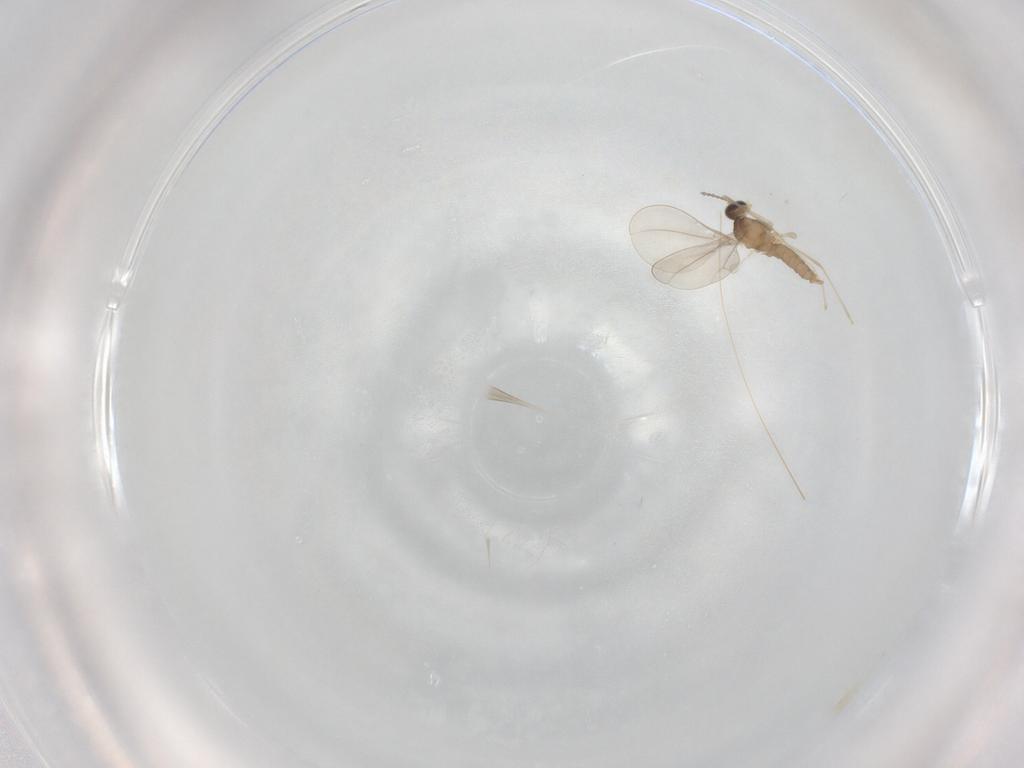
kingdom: Animalia
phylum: Arthropoda
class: Insecta
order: Diptera
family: Cecidomyiidae
